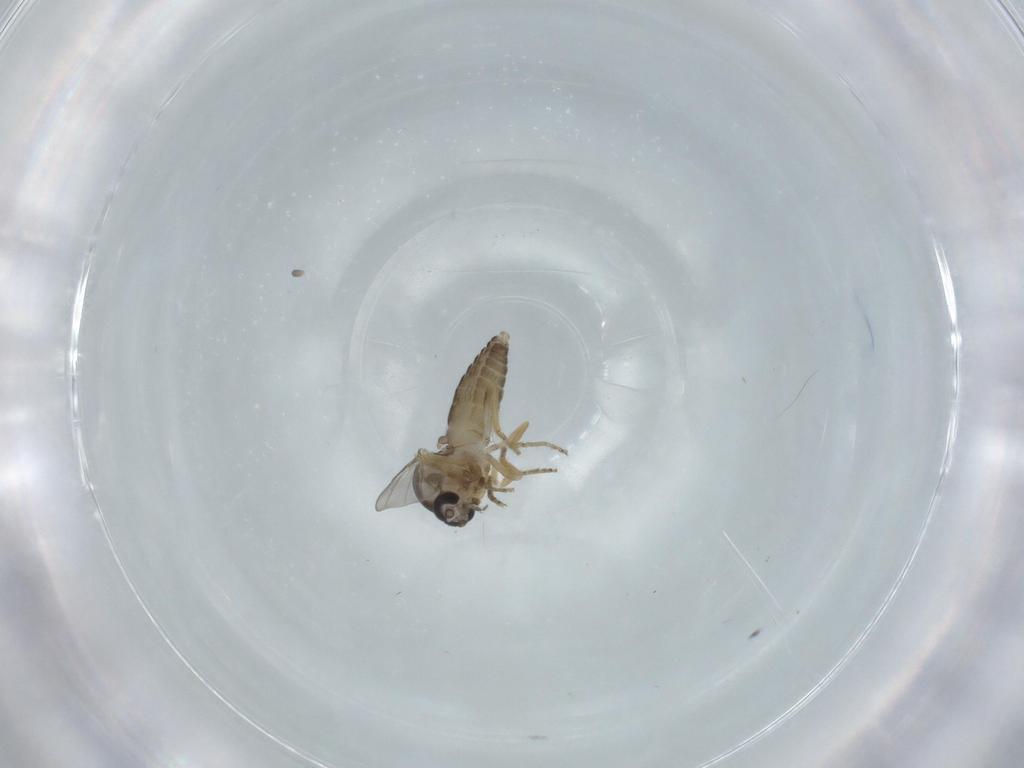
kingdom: Animalia
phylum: Arthropoda
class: Insecta
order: Diptera
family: Ceratopogonidae
